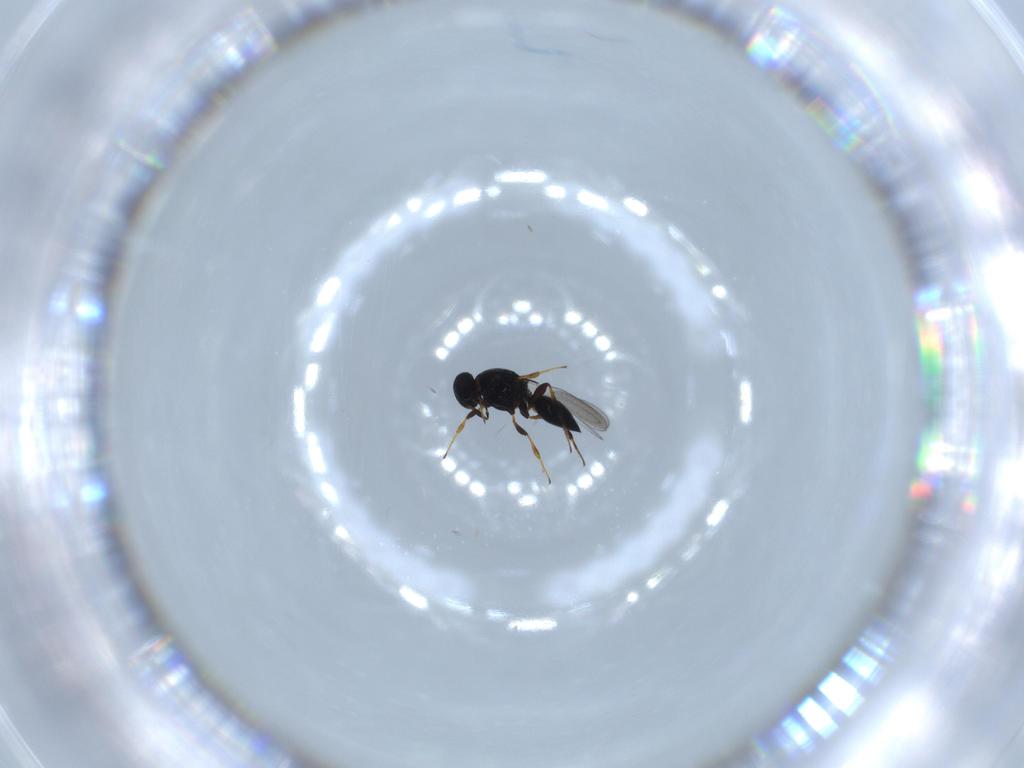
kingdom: Animalia
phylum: Arthropoda
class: Insecta
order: Hymenoptera
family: Platygastridae
